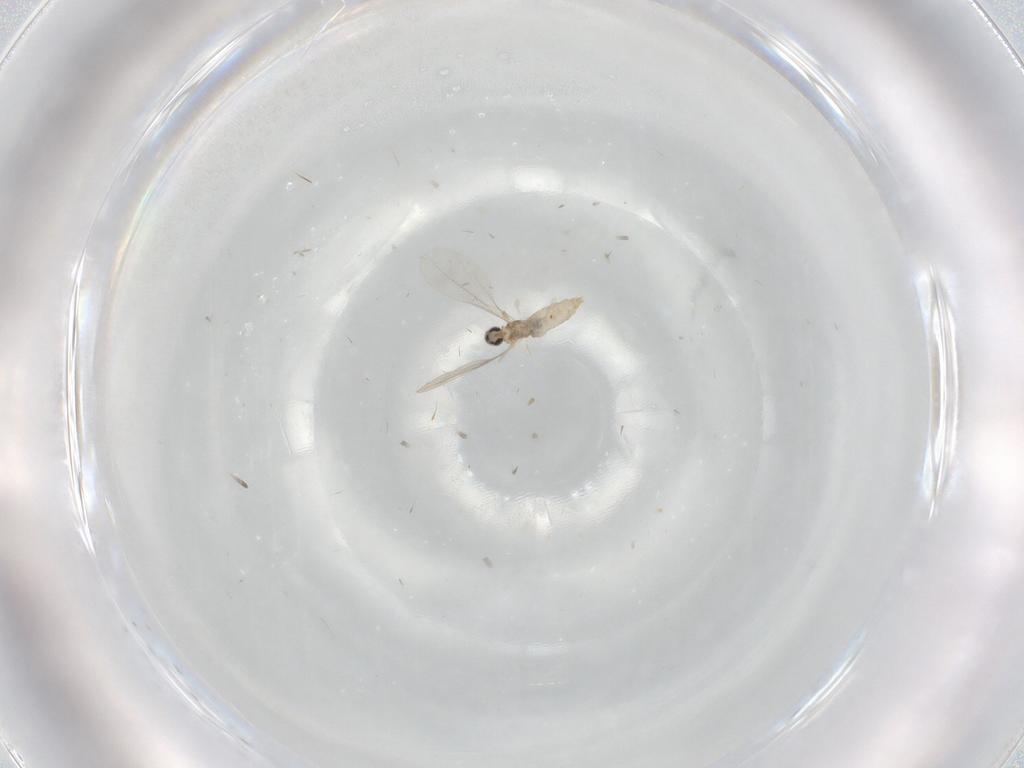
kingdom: Animalia
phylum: Arthropoda
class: Insecta
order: Diptera
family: Cecidomyiidae
